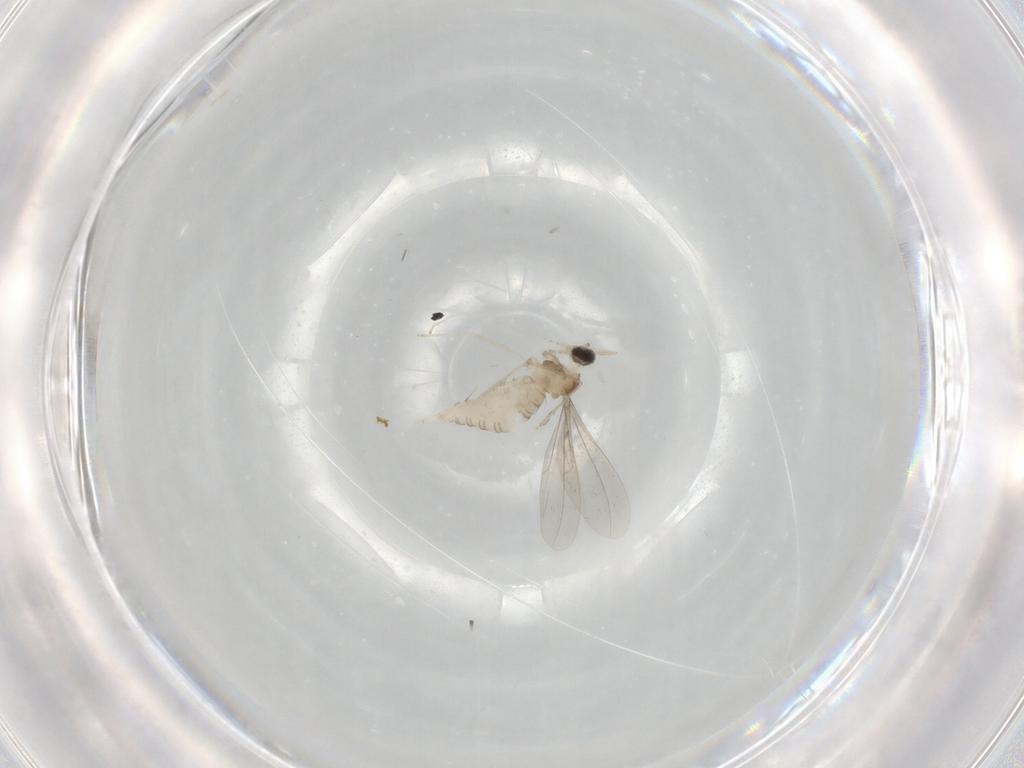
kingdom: Animalia
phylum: Arthropoda
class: Insecta
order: Diptera
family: Cecidomyiidae
